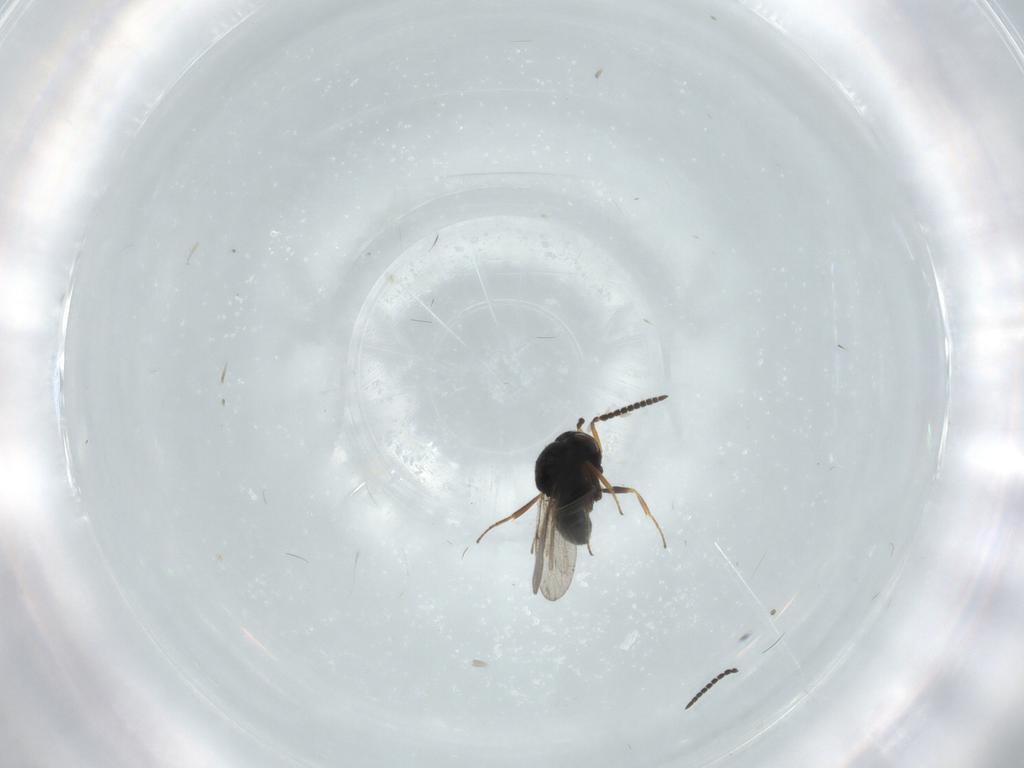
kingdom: Animalia
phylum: Arthropoda
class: Insecta
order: Hymenoptera
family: Scelionidae
